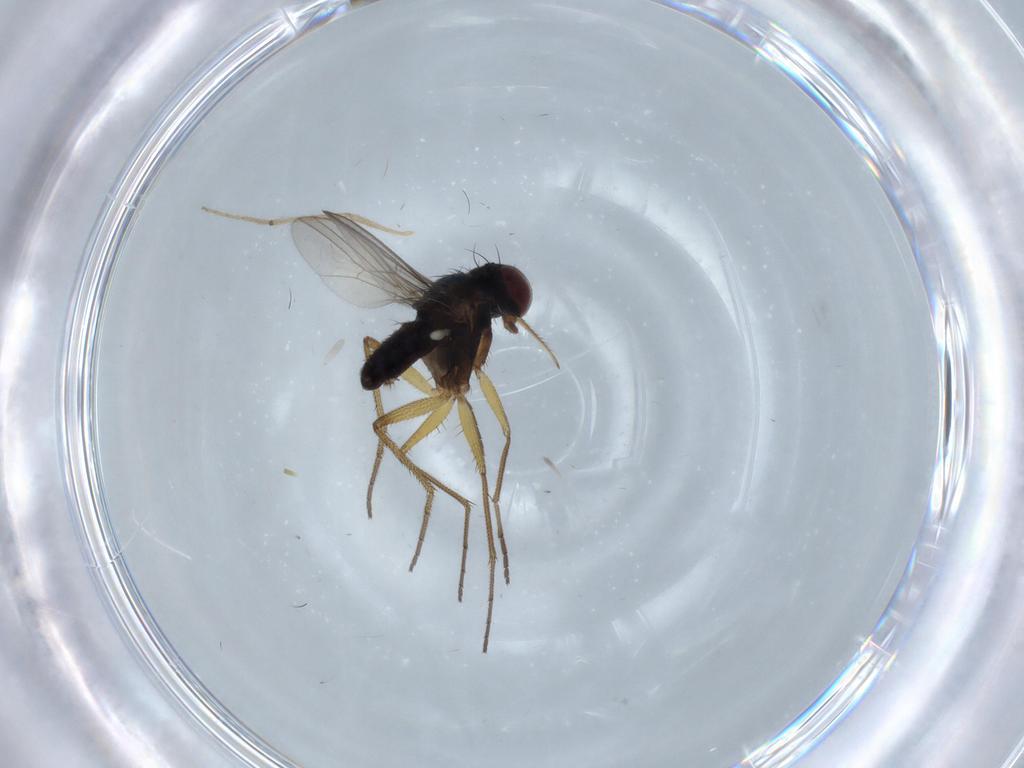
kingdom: Animalia
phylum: Arthropoda
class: Insecta
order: Diptera
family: Dolichopodidae
